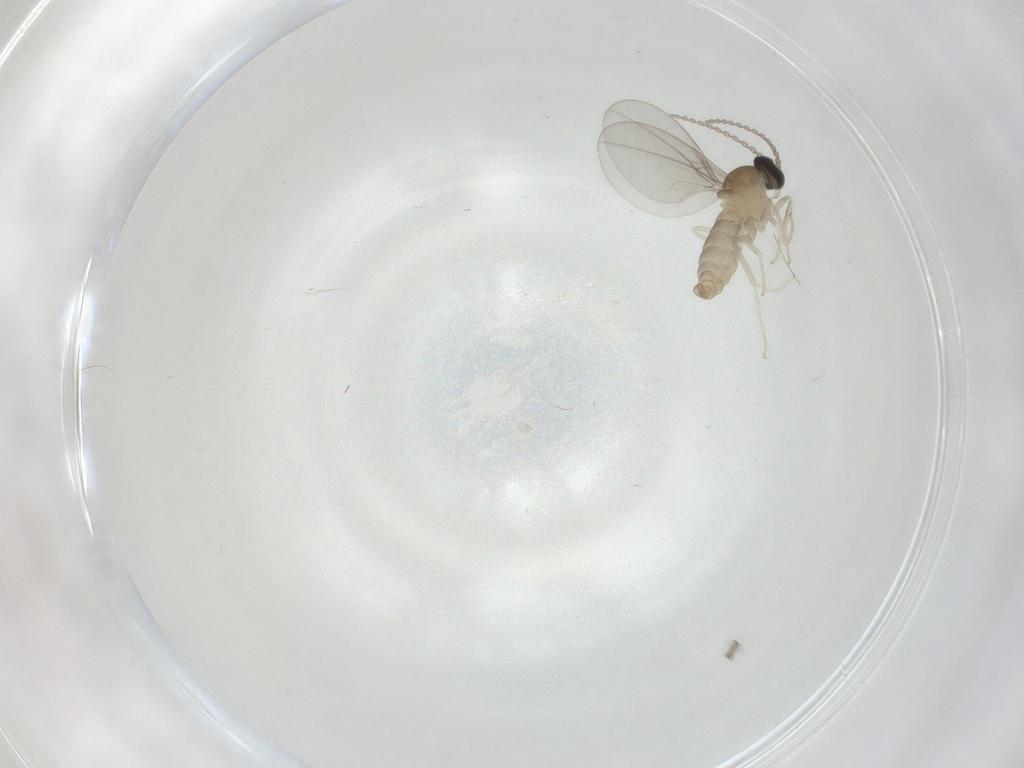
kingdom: Animalia
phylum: Arthropoda
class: Insecta
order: Diptera
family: Cecidomyiidae
